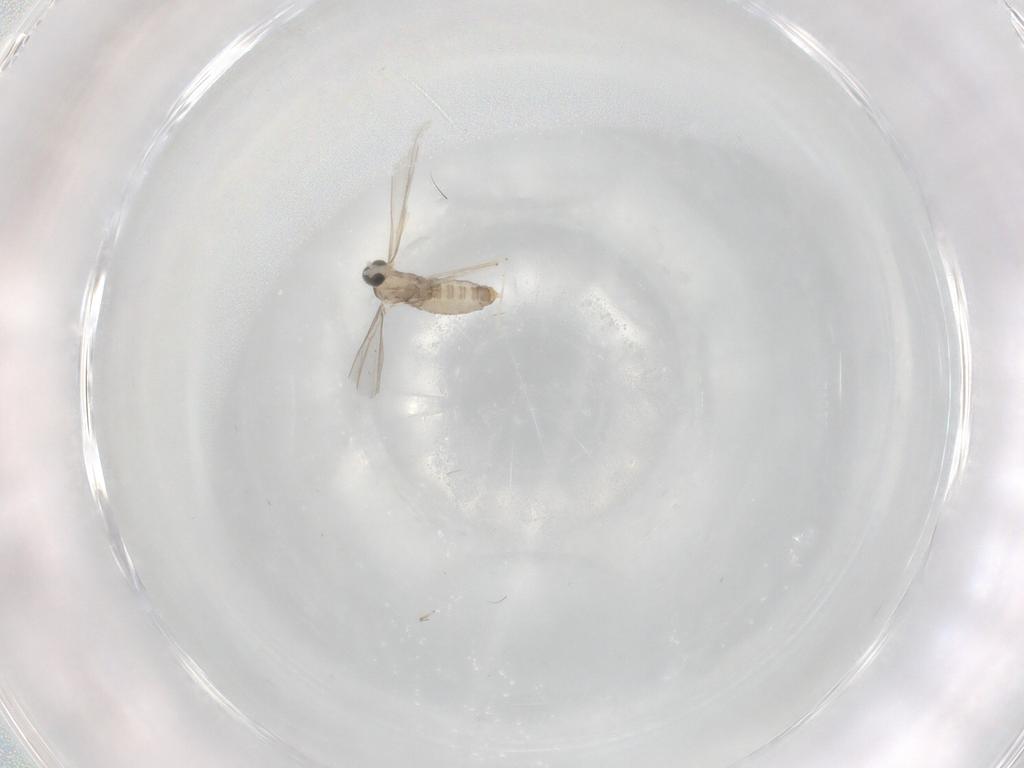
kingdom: Animalia
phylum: Arthropoda
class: Insecta
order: Diptera
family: Cecidomyiidae
